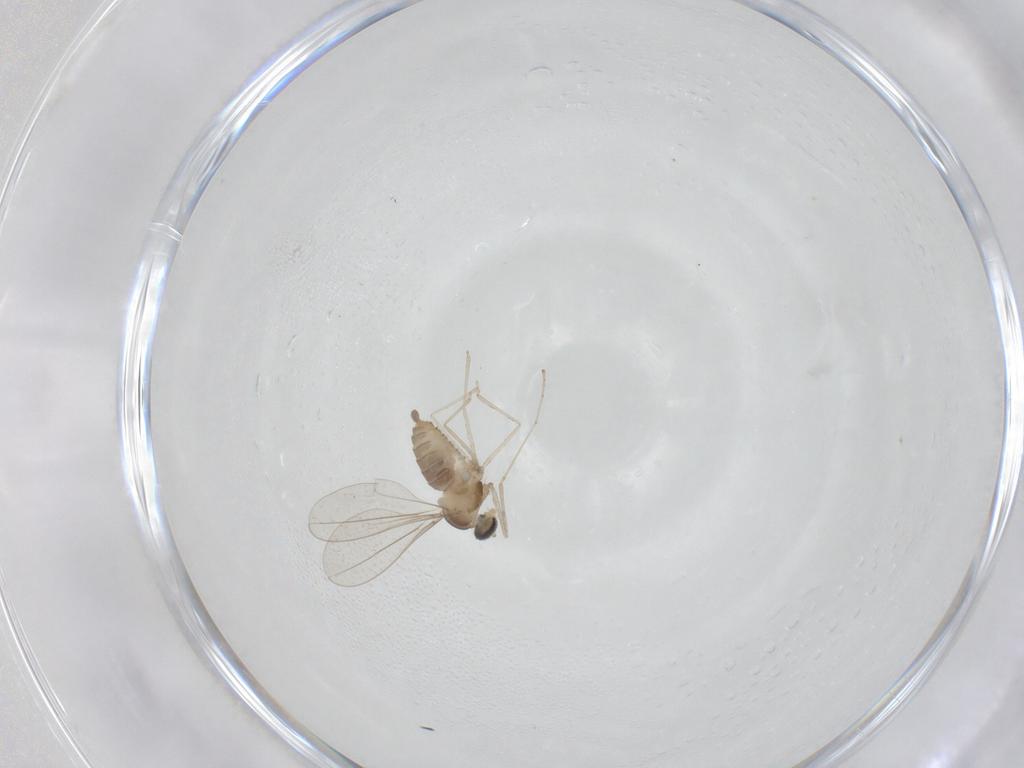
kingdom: Animalia
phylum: Arthropoda
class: Insecta
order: Diptera
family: Cecidomyiidae
